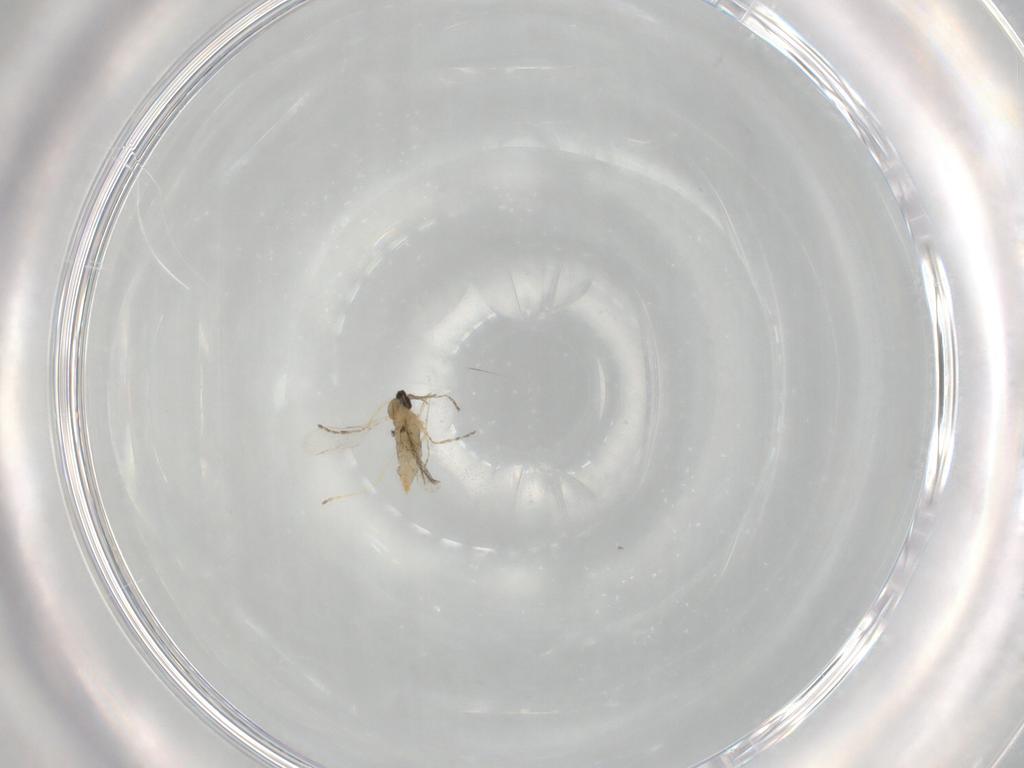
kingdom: Animalia
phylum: Arthropoda
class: Insecta
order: Diptera
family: Cecidomyiidae
